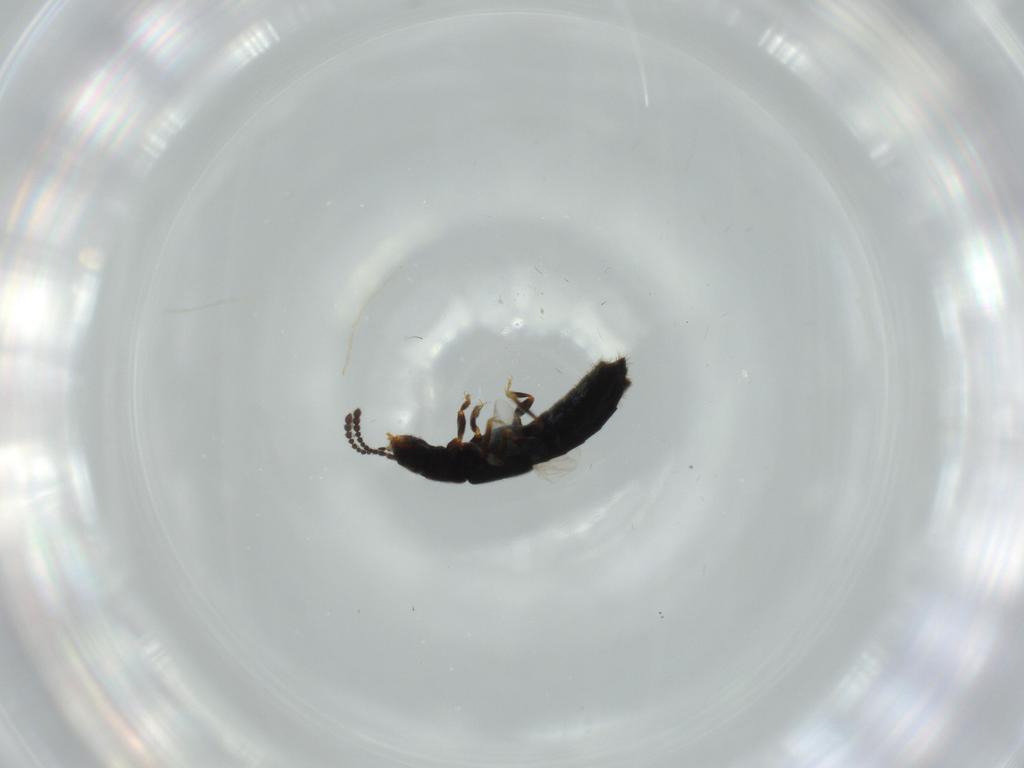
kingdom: Animalia
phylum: Arthropoda
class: Insecta
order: Coleoptera
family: Staphylinidae
